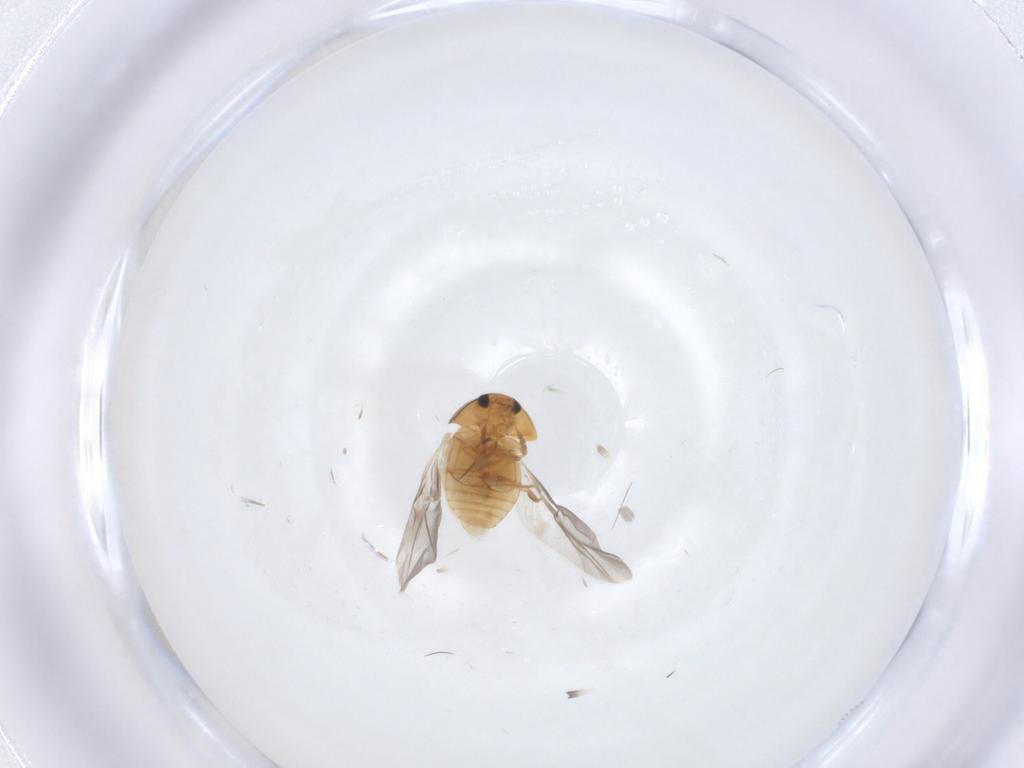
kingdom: Animalia
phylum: Arthropoda
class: Insecta
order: Coleoptera
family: Phalacridae
